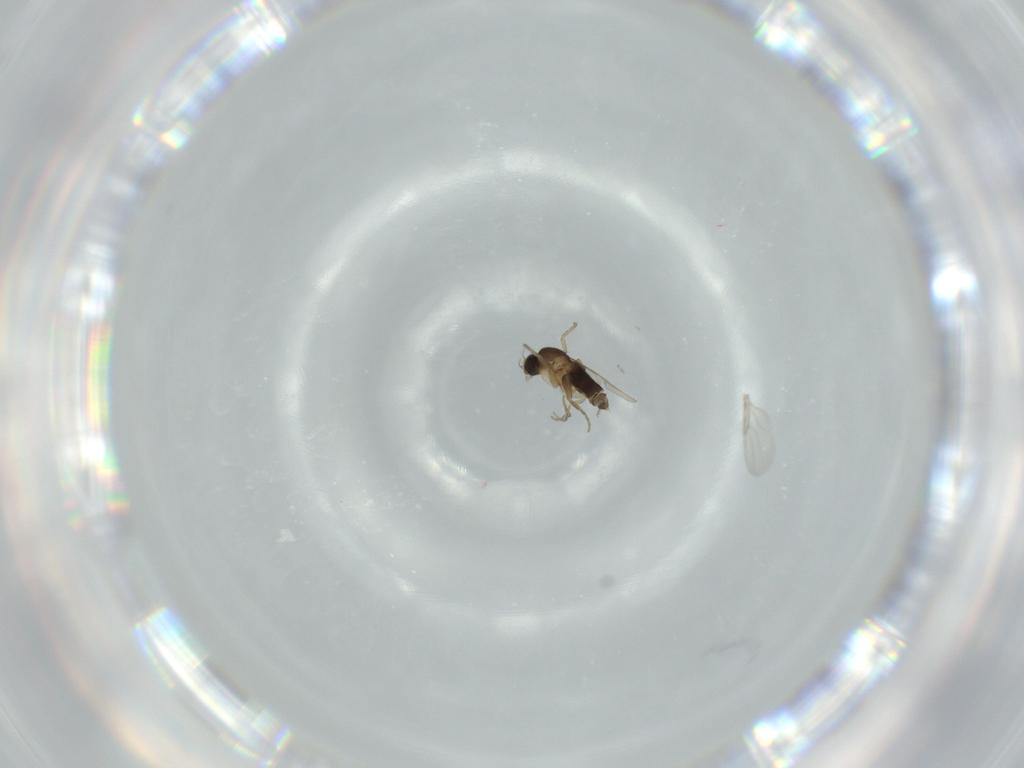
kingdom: Animalia
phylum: Arthropoda
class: Insecta
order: Diptera
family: Phoridae
